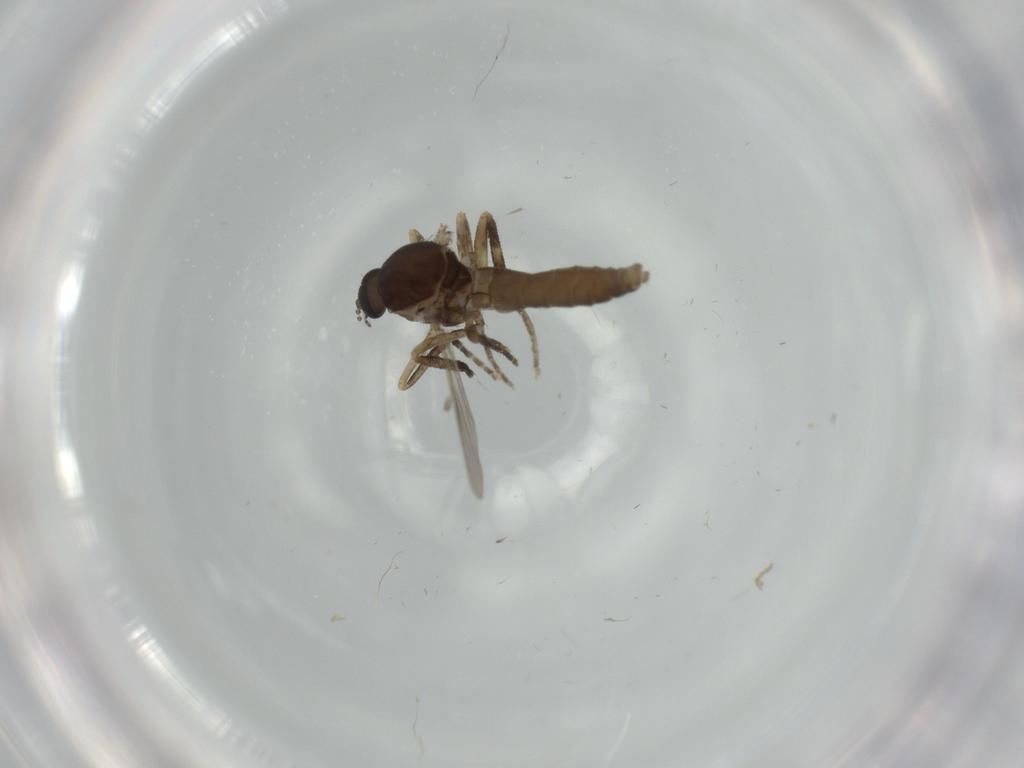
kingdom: Animalia
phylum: Arthropoda
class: Insecta
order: Diptera
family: Ceratopogonidae
